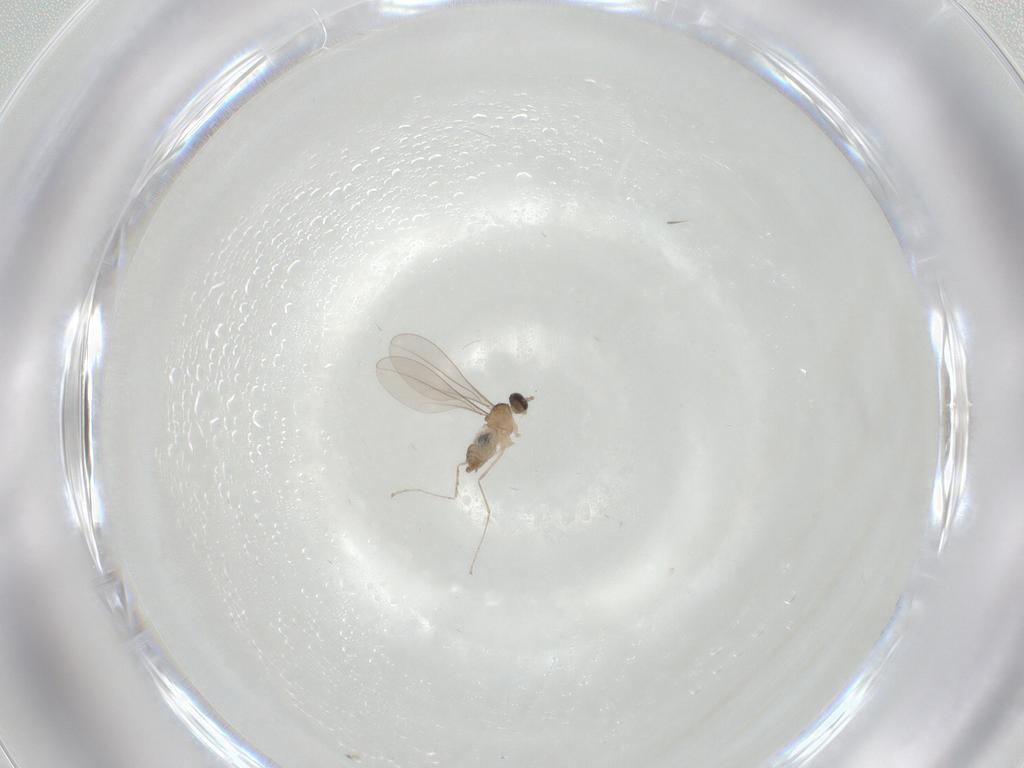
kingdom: Animalia
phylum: Arthropoda
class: Insecta
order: Diptera
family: Cecidomyiidae
